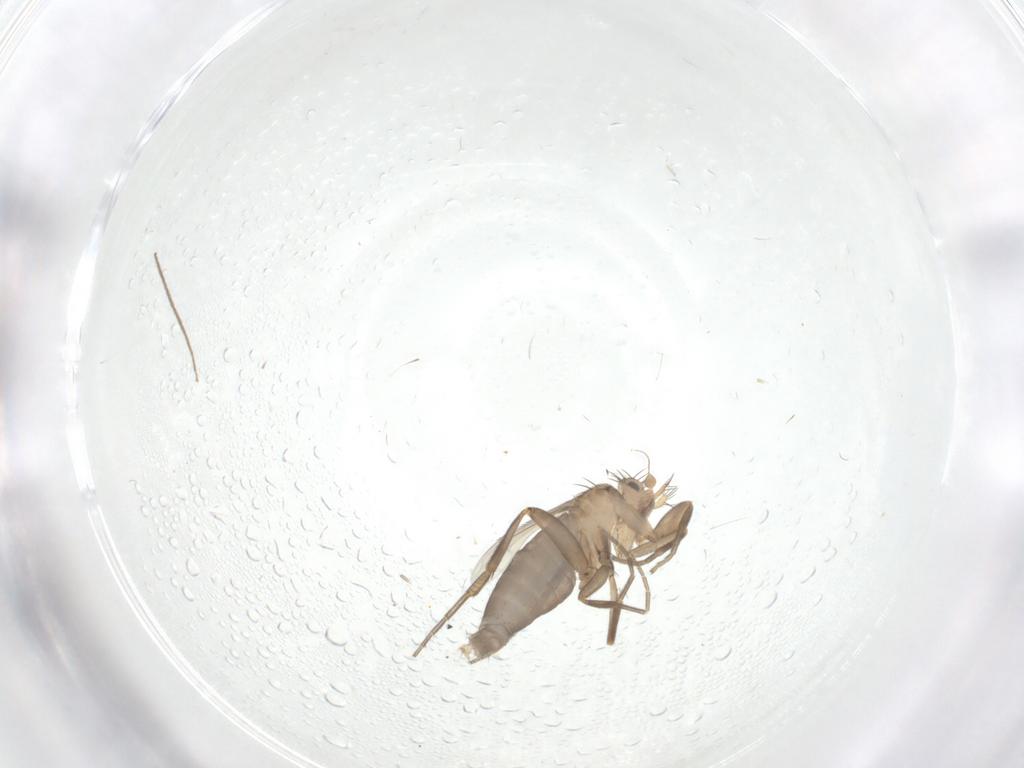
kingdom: Animalia
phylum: Arthropoda
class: Insecta
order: Diptera
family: Phoridae
